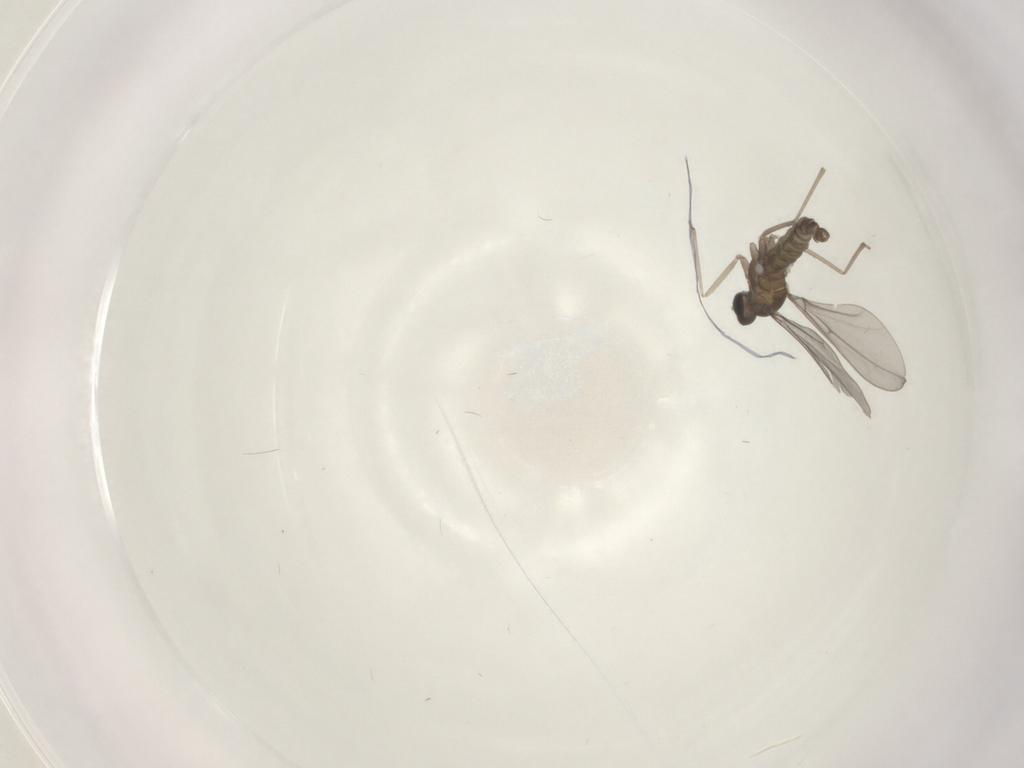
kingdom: Animalia
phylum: Arthropoda
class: Insecta
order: Diptera
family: Cecidomyiidae
